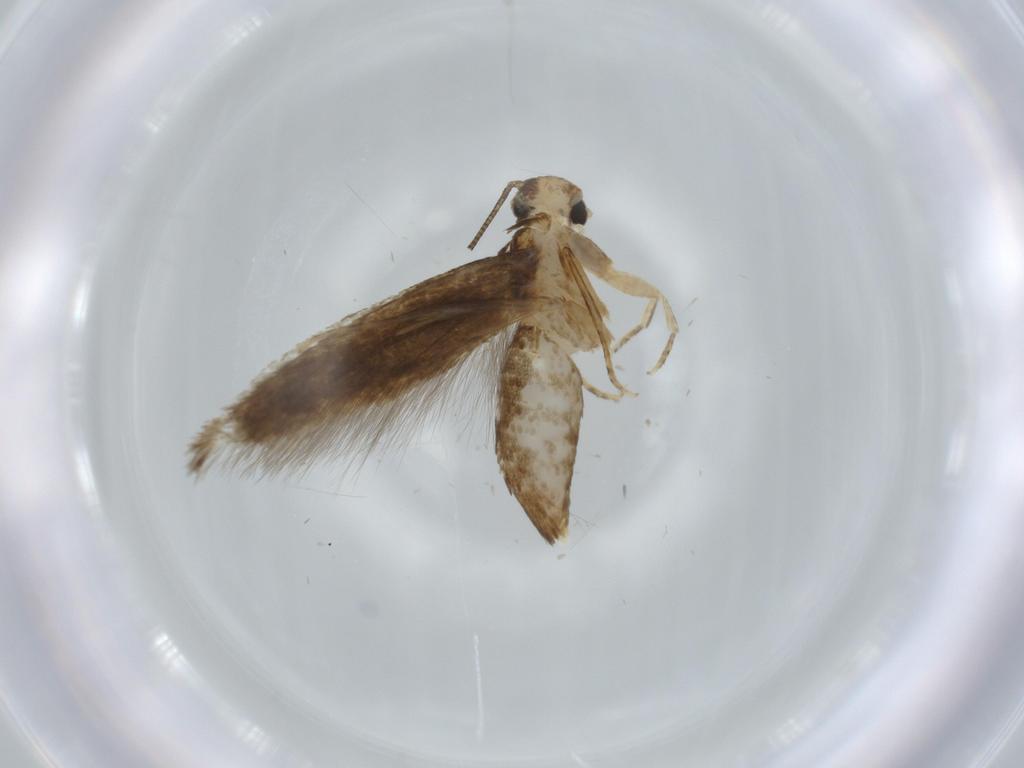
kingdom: Animalia
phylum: Arthropoda
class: Insecta
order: Lepidoptera
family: Tineidae
